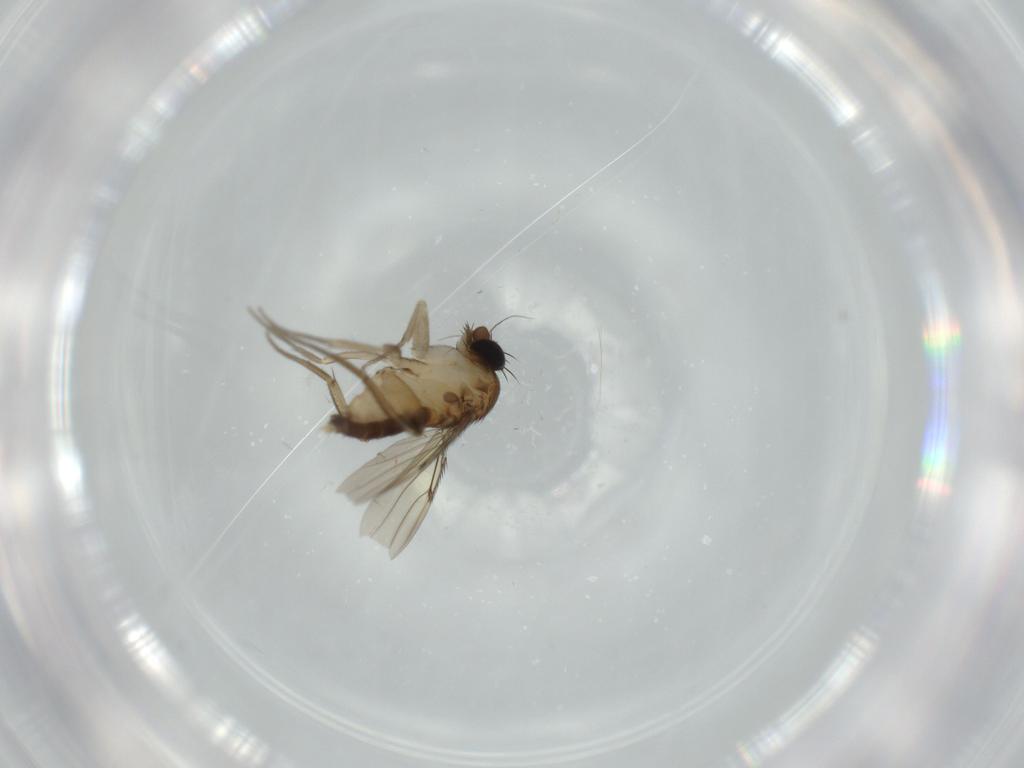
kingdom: Animalia
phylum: Arthropoda
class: Insecta
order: Diptera
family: Phoridae
